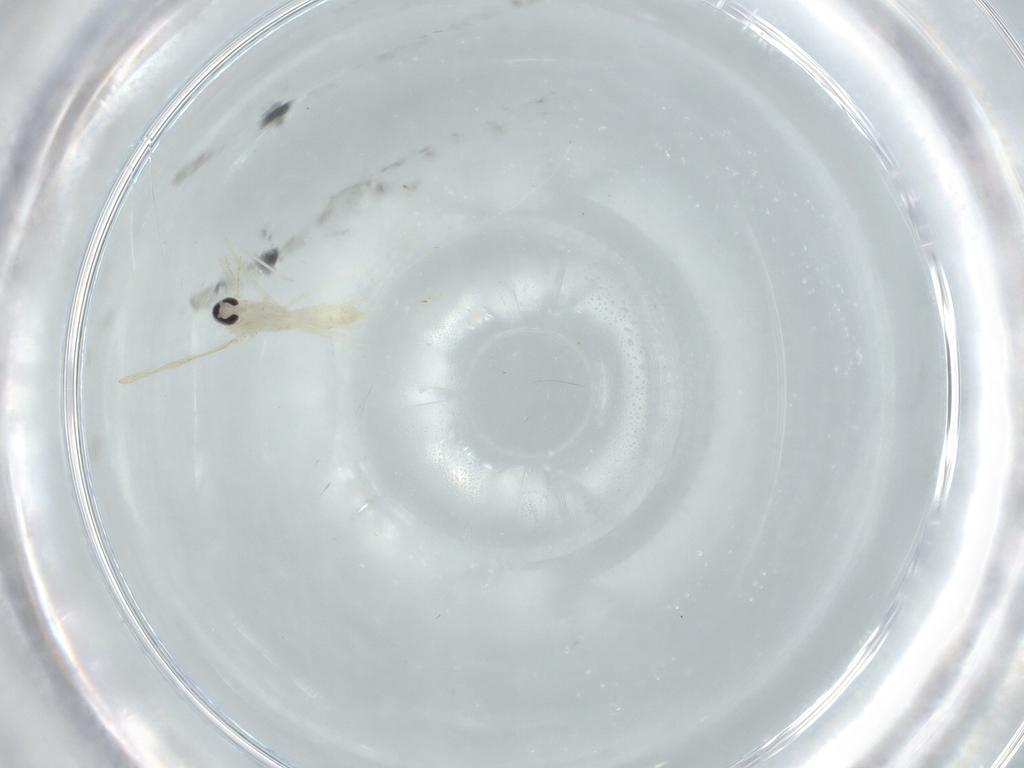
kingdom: Animalia
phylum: Arthropoda
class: Insecta
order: Diptera
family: Cecidomyiidae
